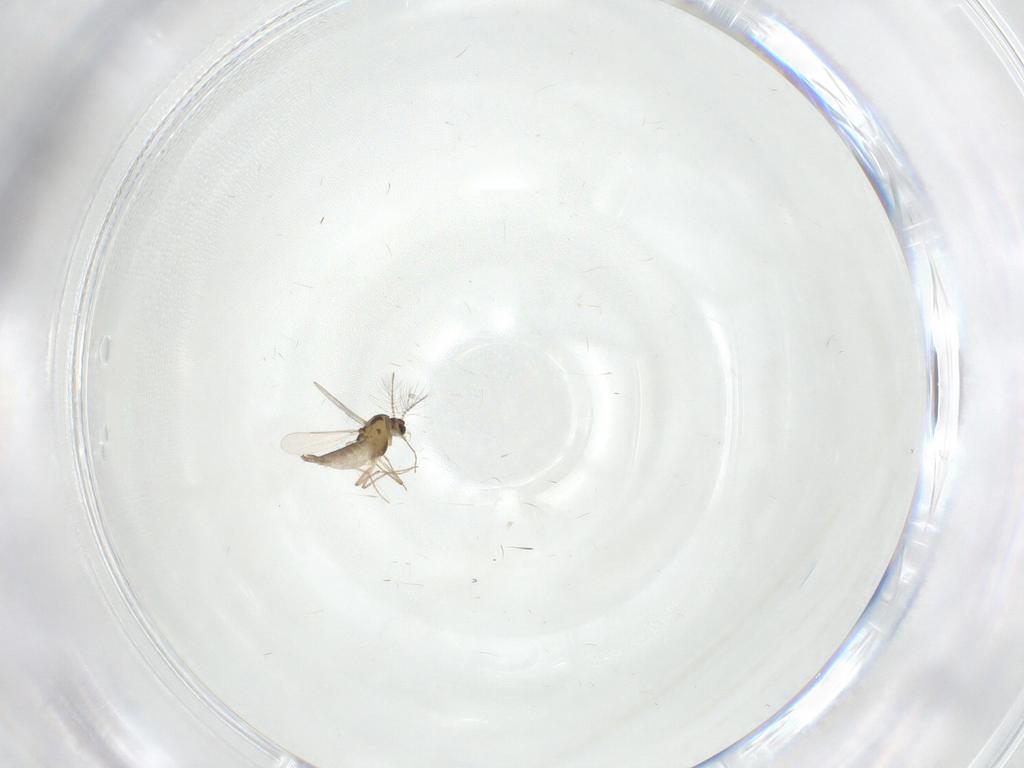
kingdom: Animalia
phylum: Arthropoda
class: Insecta
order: Diptera
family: Chironomidae
